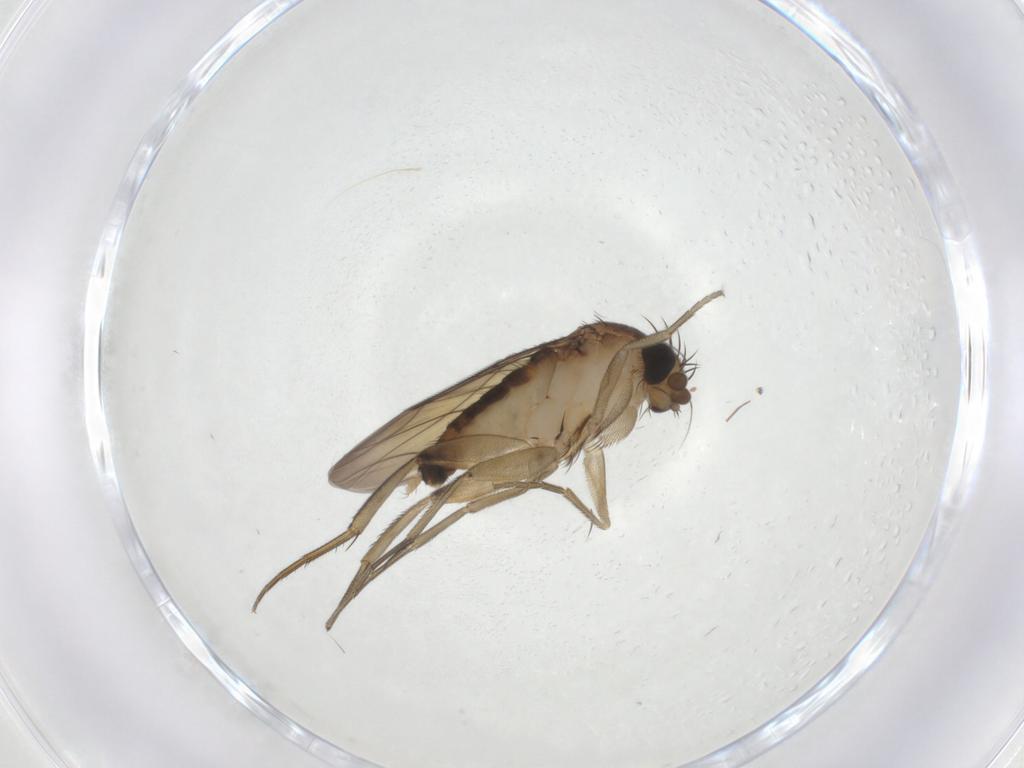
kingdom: Animalia
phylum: Arthropoda
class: Insecta
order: Diptera
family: Phoridae
